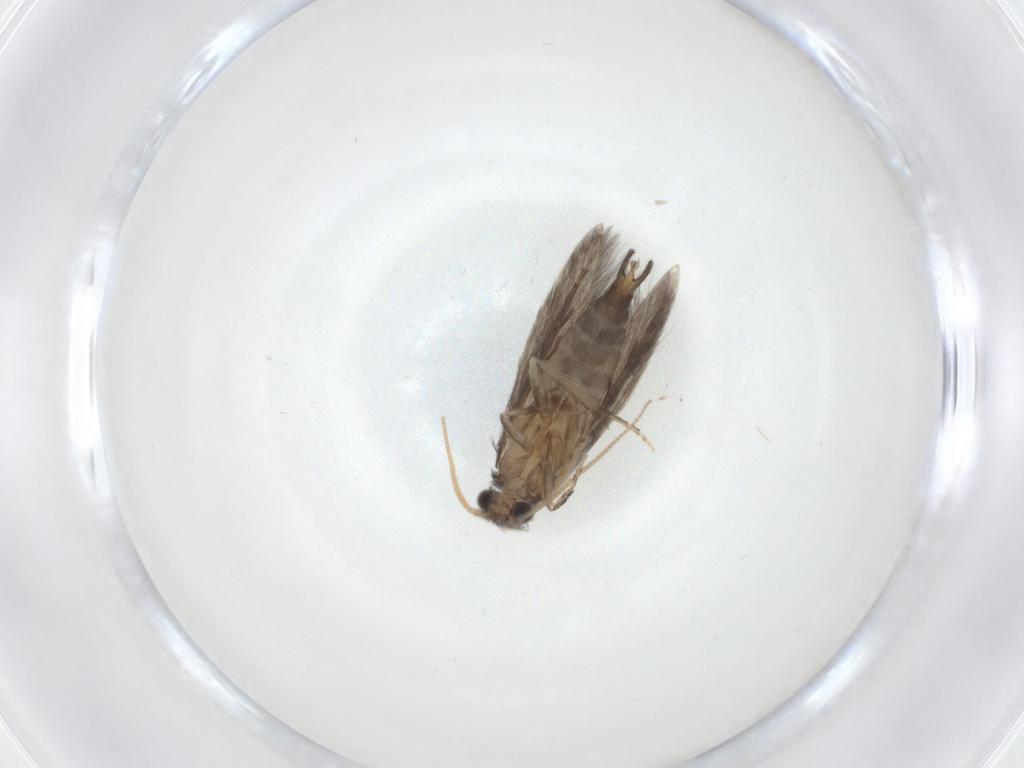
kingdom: Animalia
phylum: Arthropoda
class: Insecta
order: Trichoptera
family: Hydroptilidae
